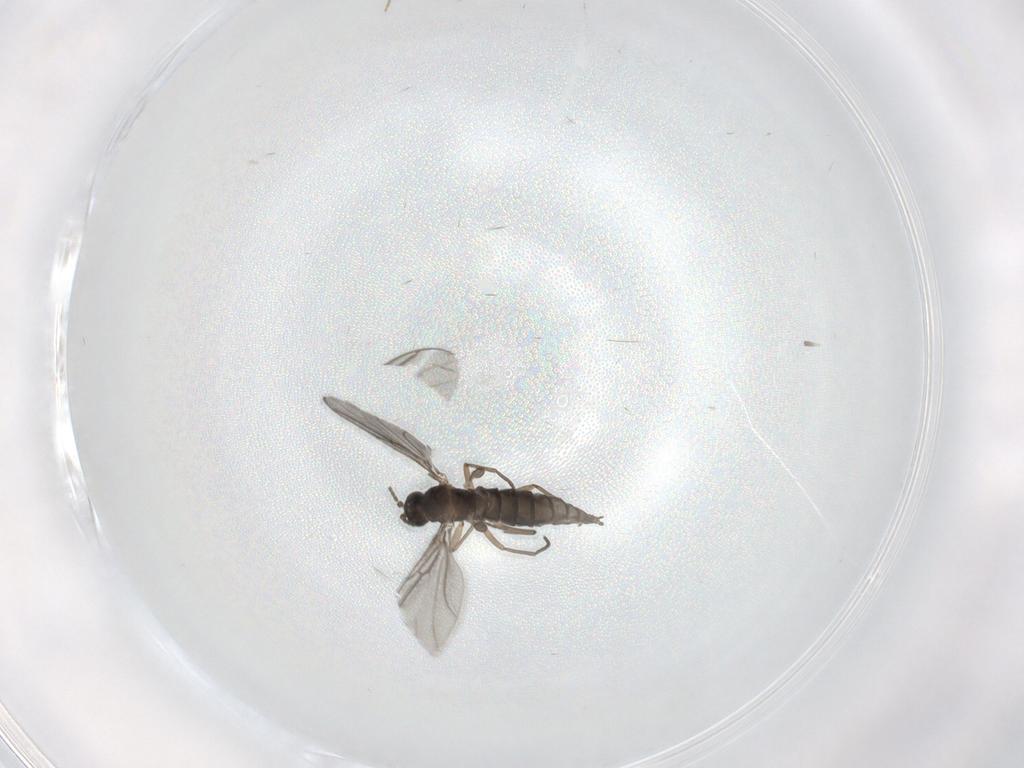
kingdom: Animalia
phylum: Arthropoda
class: Insecta
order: Diptera
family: Sciaridae
